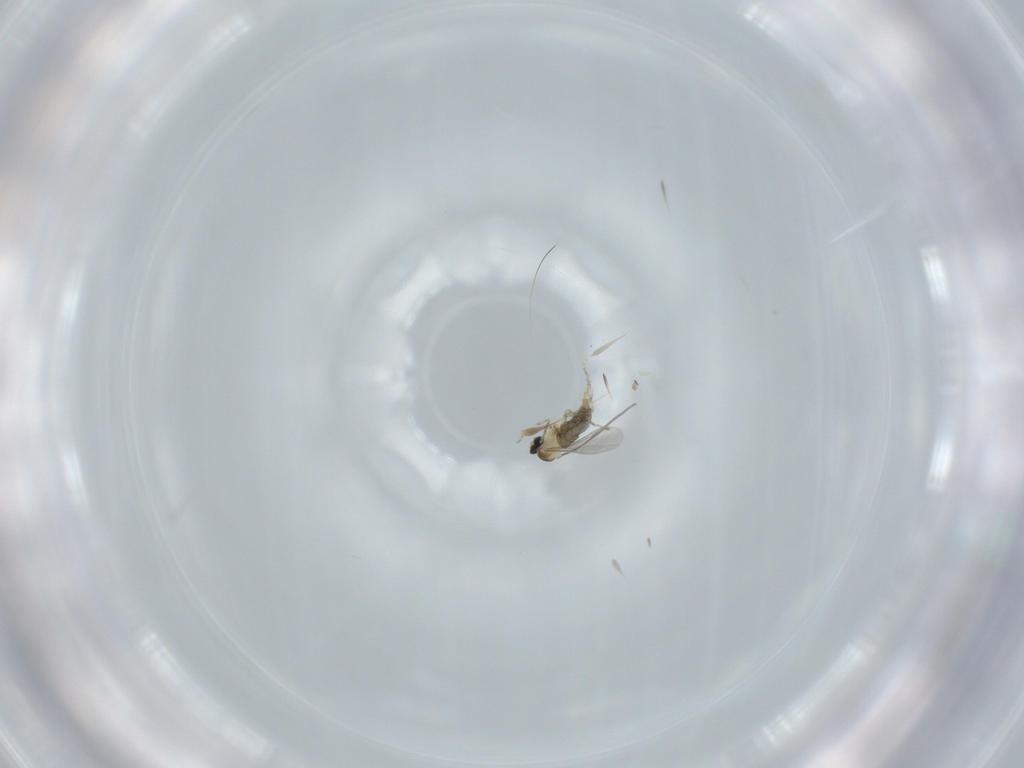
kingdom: Animalia
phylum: Arthropoda
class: Insecta
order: Diptera
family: Cecidomyiidae
